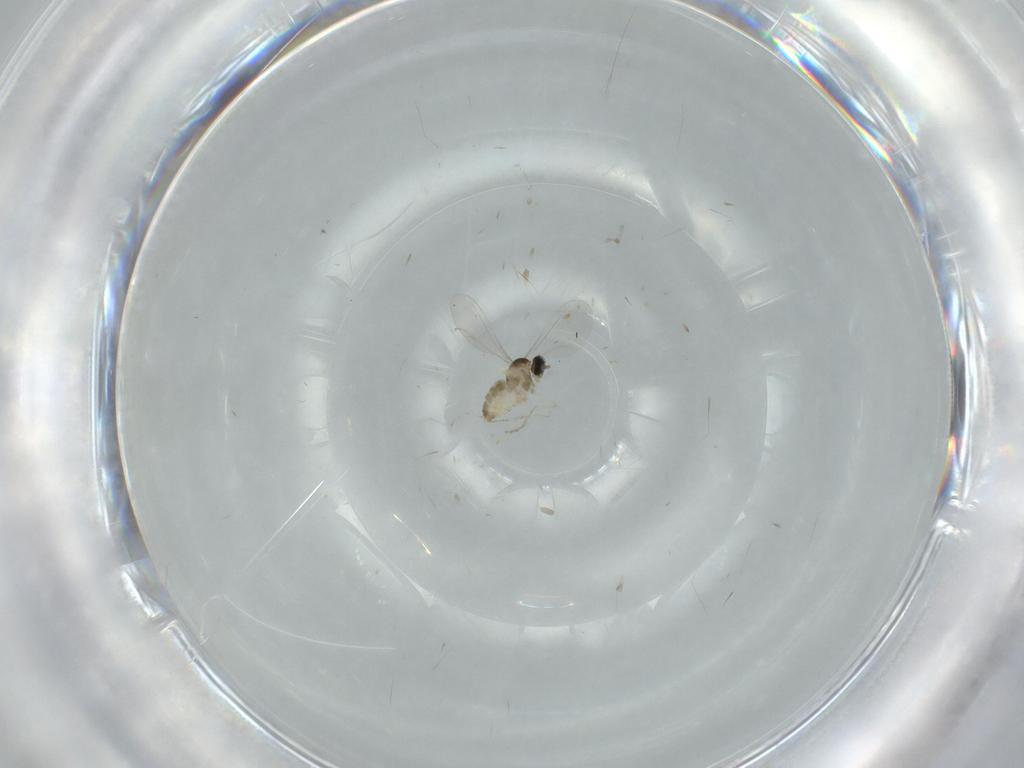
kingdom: Animalia
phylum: Arthropoda
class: Insecta
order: Diptera
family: Cecidomyiidae
